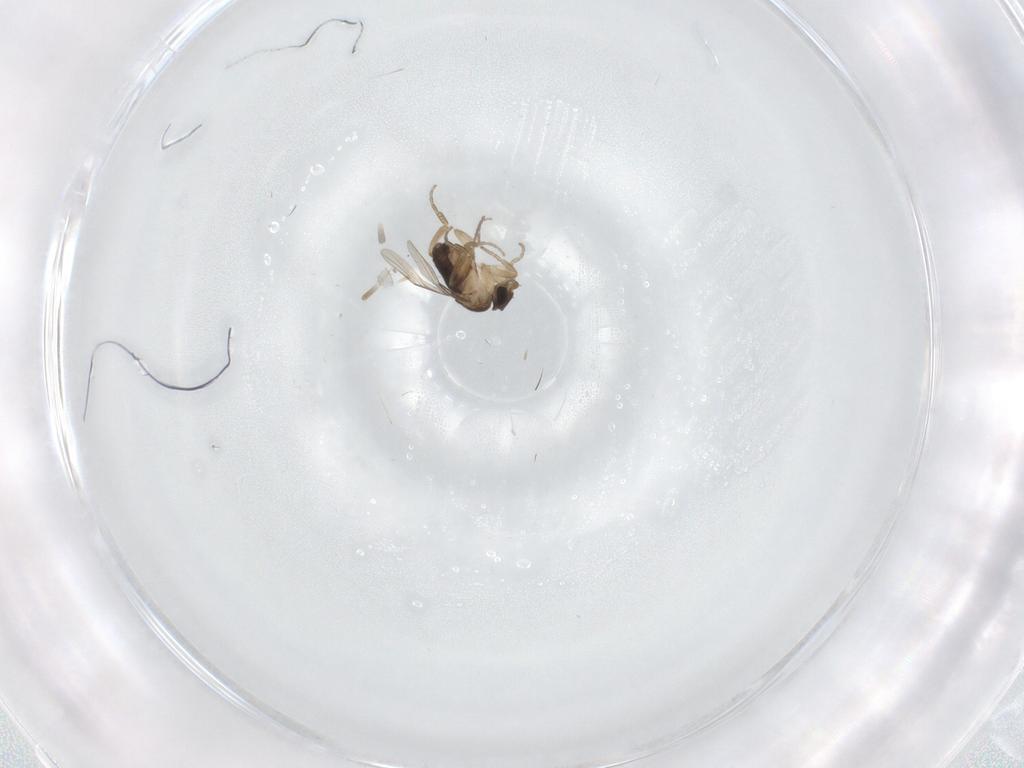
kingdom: Animalia
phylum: Arthropoda
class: Insecta
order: Diptera
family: Phoridae
